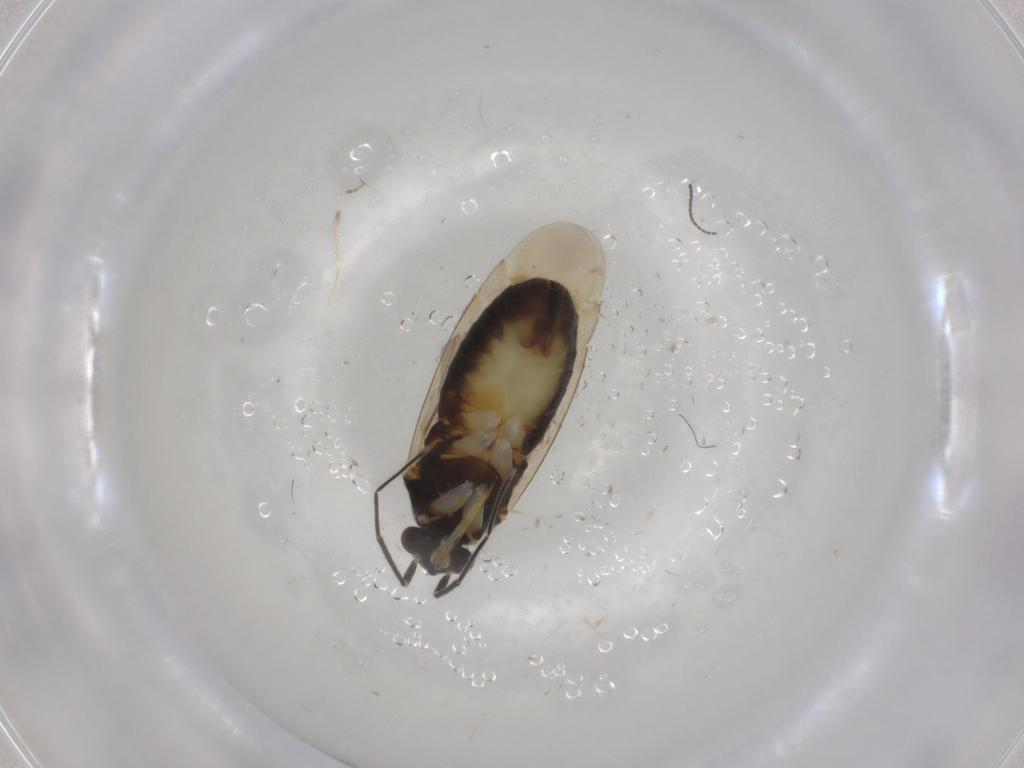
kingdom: Animalia
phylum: Arthropoda
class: Insecta
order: Hemiptera
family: Miridae
